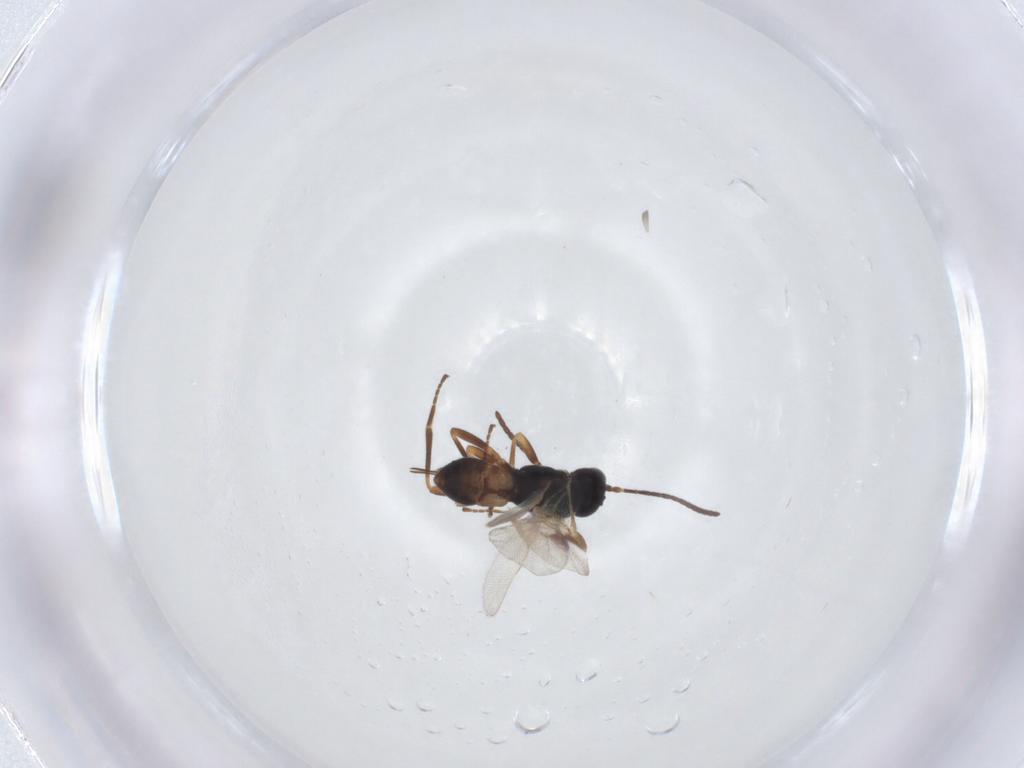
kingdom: Animalia
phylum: Arthropoda
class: Insecta
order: Hymenoptera
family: Braconidae
